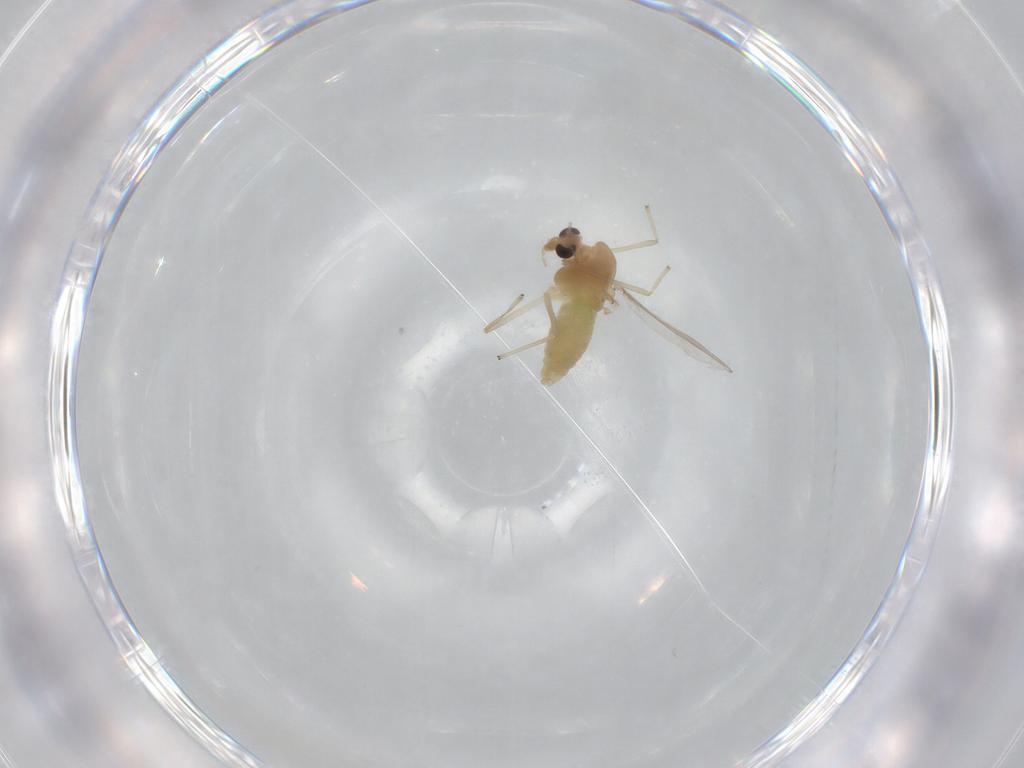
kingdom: Animalia
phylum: Arthropoda
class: Insecta
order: Diptera
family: Chironomidae
